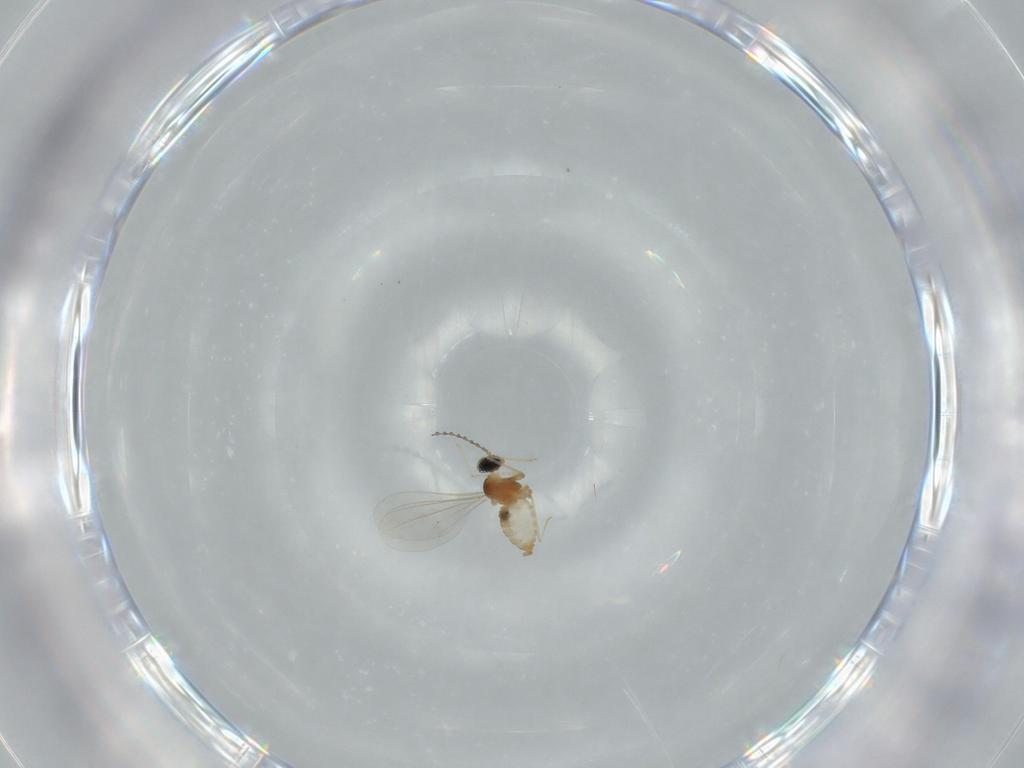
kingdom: Animalia
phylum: Arthropoda
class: Insecta
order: Diptera
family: Cecidomyiidae
